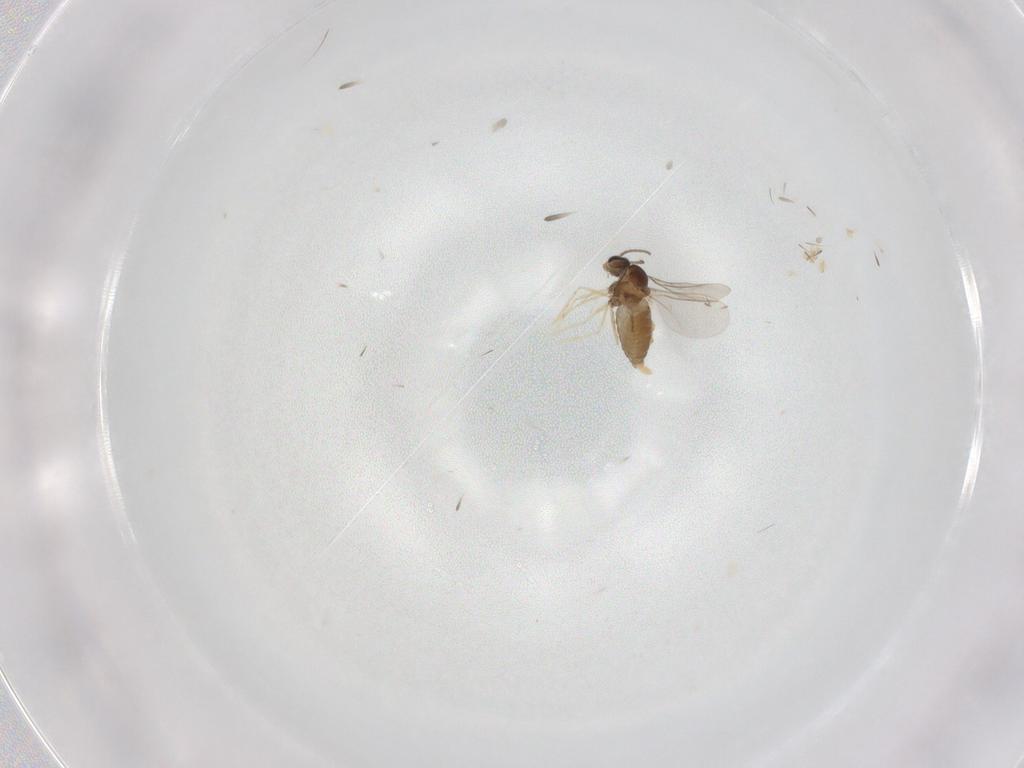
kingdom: Animalia
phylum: Arthropoda
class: Insecta
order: Diptera
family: Cecidomyiidae
